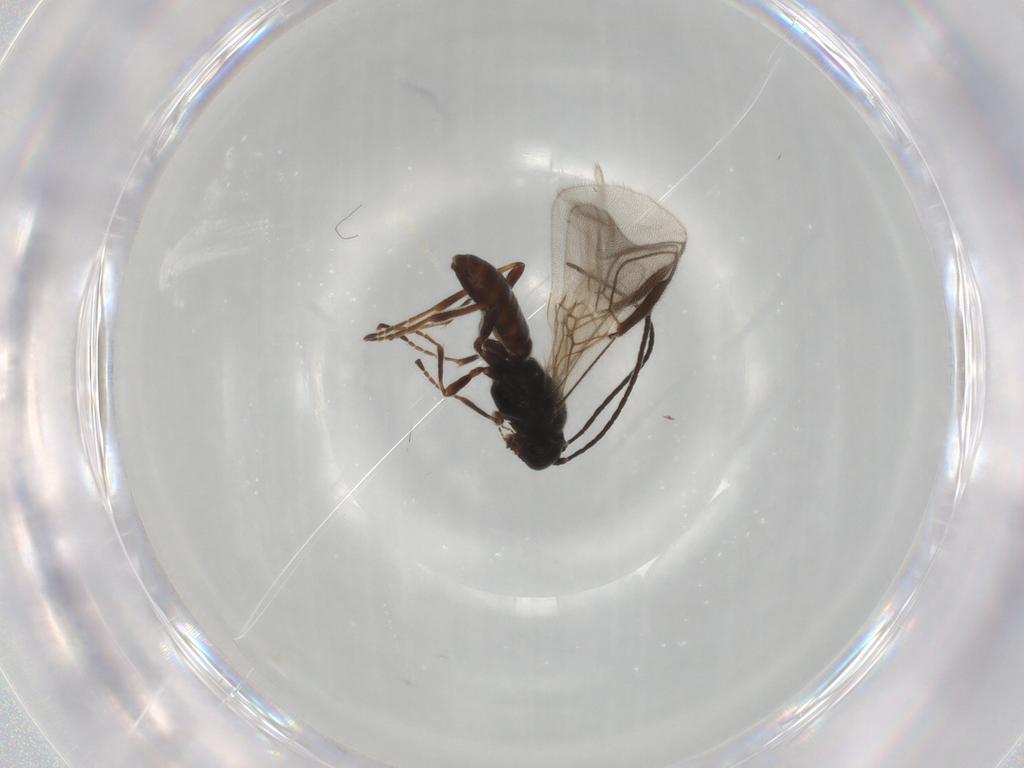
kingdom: Animalia
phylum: Arthropoda
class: Insecta
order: Hymenoptera
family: Braconidae
